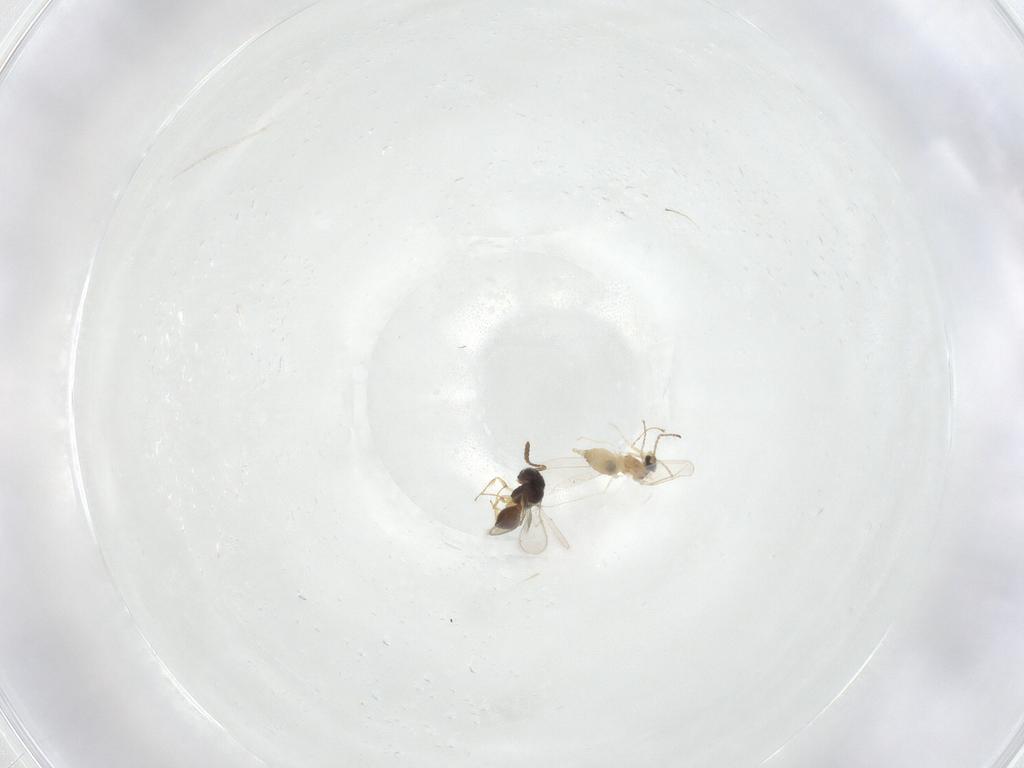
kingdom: Animalia
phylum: Arthropoda
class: Insecta
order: Diptera
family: Cecidomyiidae
